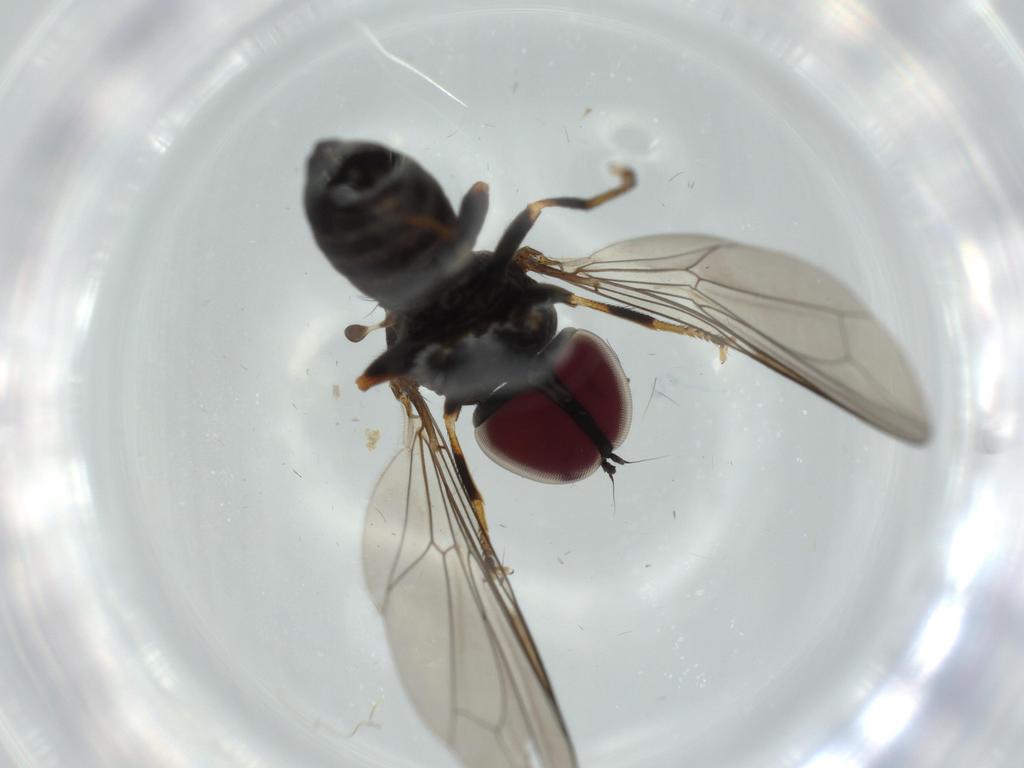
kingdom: Animalia
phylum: Arthropoda
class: Insecta
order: Diptera
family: Pipunculidae
